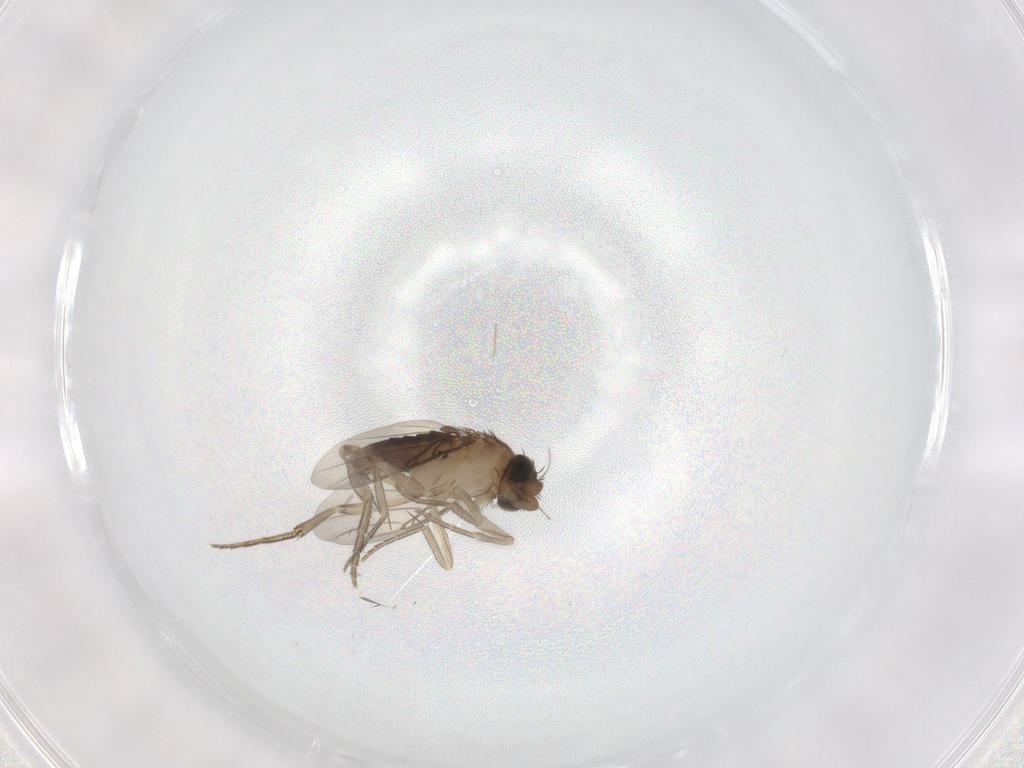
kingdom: Animalia
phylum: Arthropoda
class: Insecta
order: Diptera
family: Phoridae
